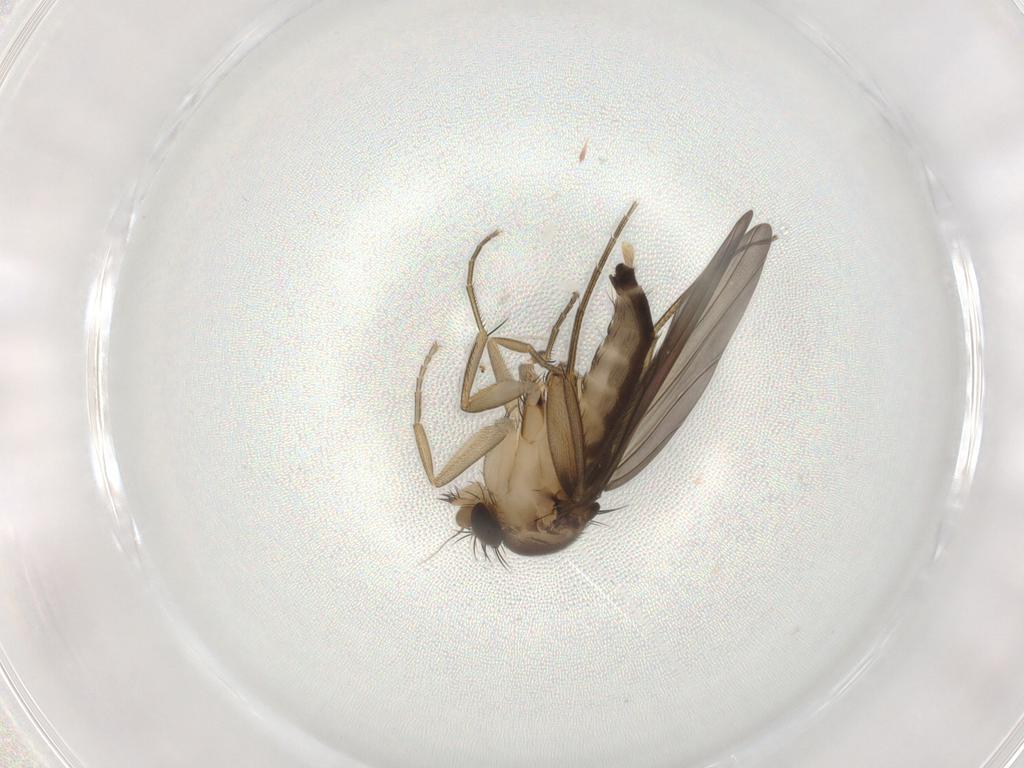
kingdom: Animalia
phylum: Arthropoda
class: Insecta
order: Diptera
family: Phoridae
